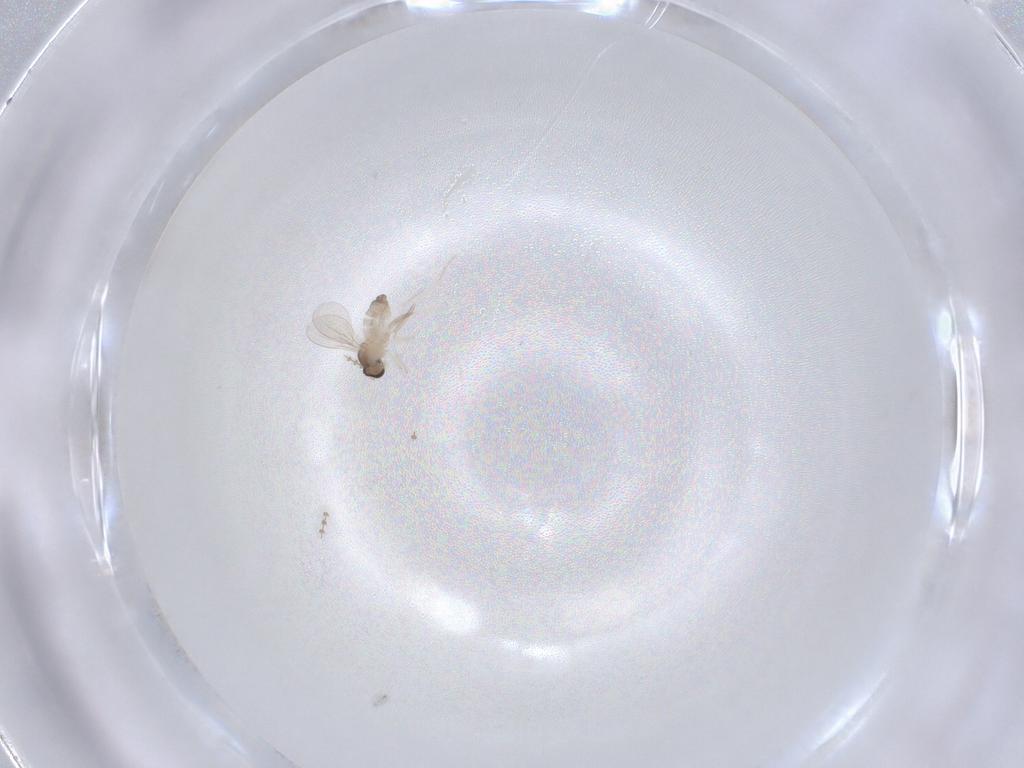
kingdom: Animalia
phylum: Arthropoda
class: Insecta
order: Diptera
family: Cecidomyiidae
